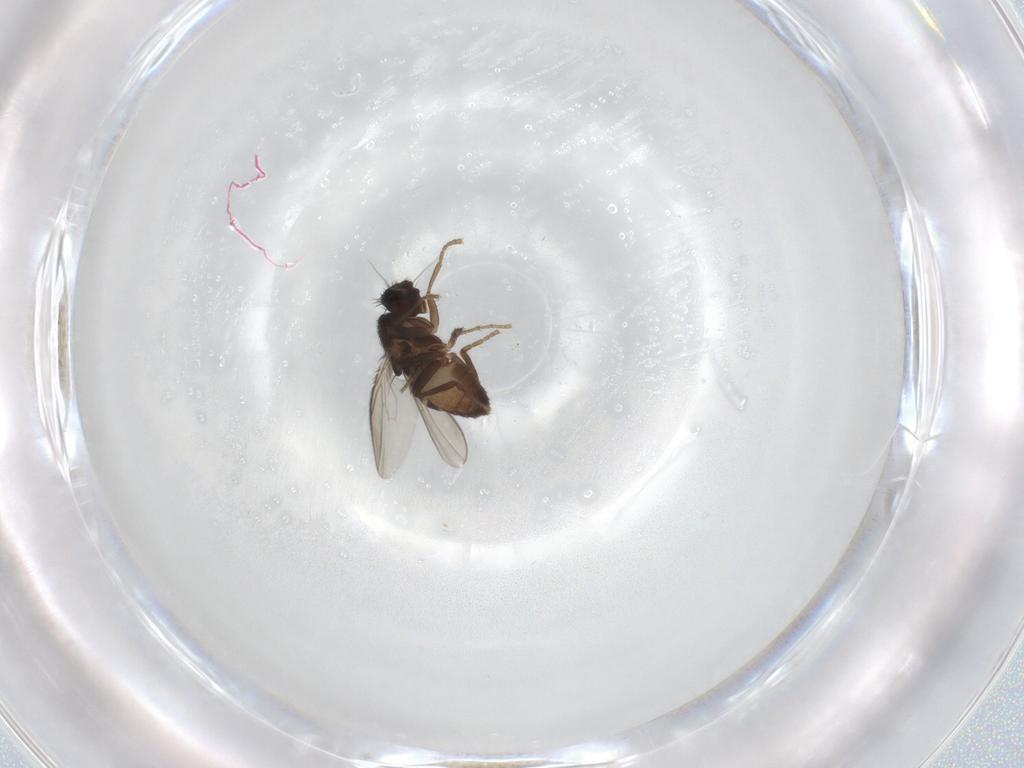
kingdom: Animalia
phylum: Arthropoda
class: Insecta
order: Diptera
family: Sphaeroceridae
